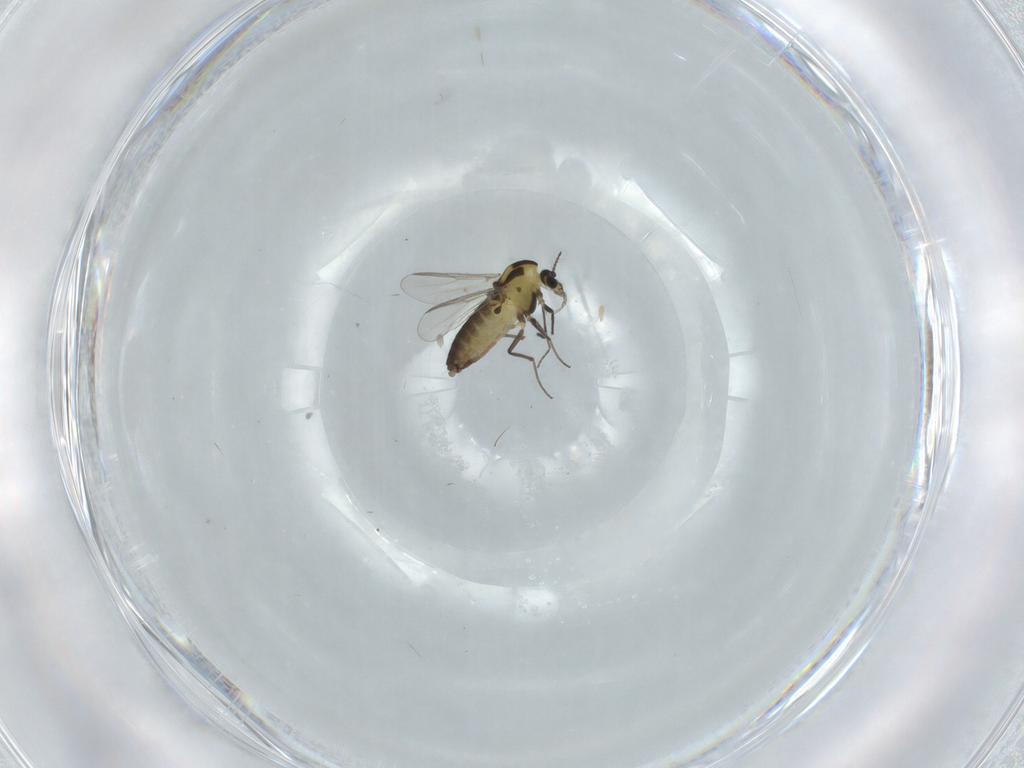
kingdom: Animalia
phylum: Arthropoda
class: Insecta
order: Diptera
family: Chironomidae
